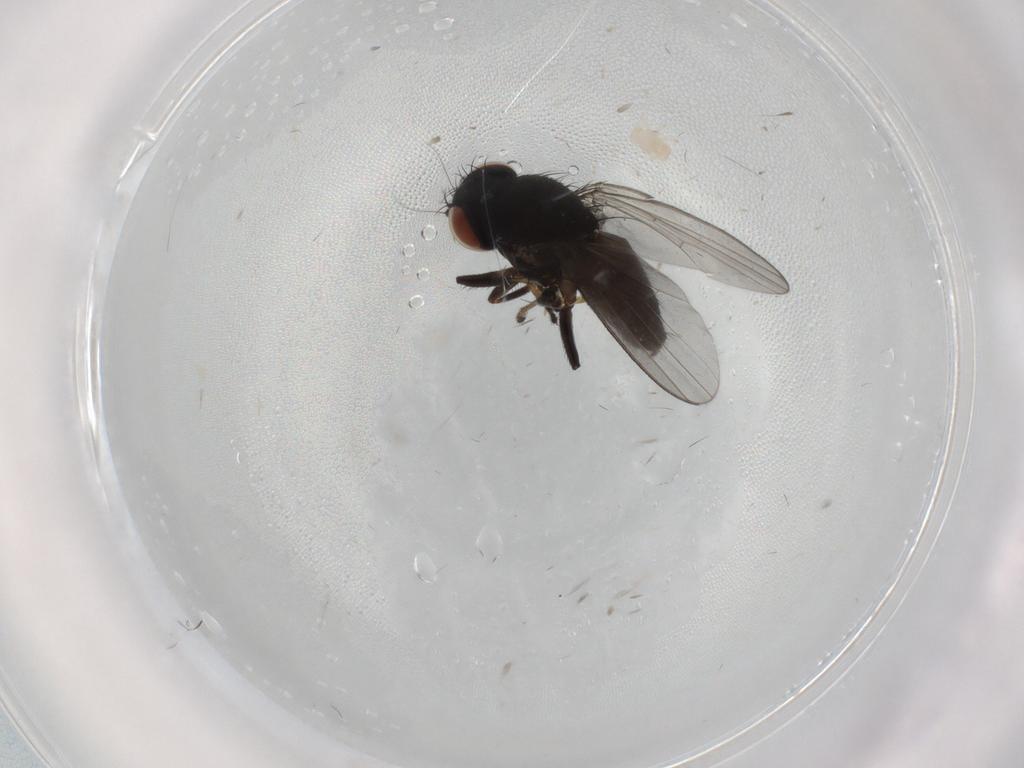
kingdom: Animalia
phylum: Arthropoda
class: Insecta
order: Diptera
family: Milichiidae
